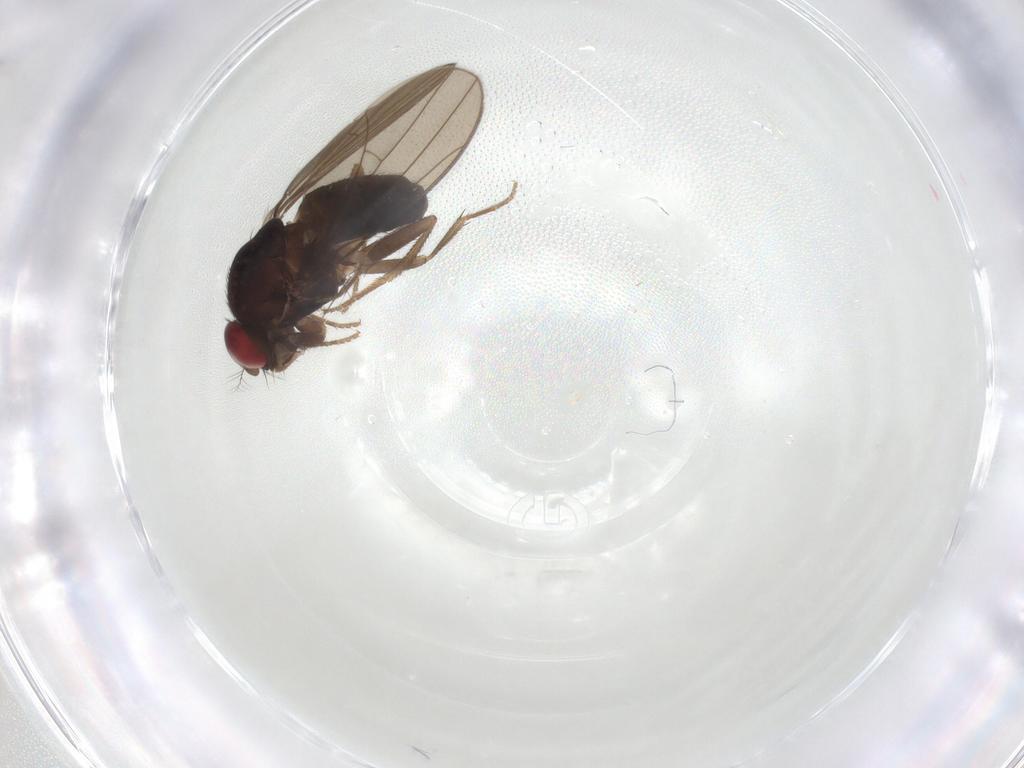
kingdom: Animalia
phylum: Arthropoda
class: Insecta
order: Diptera
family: Drosophilidae
